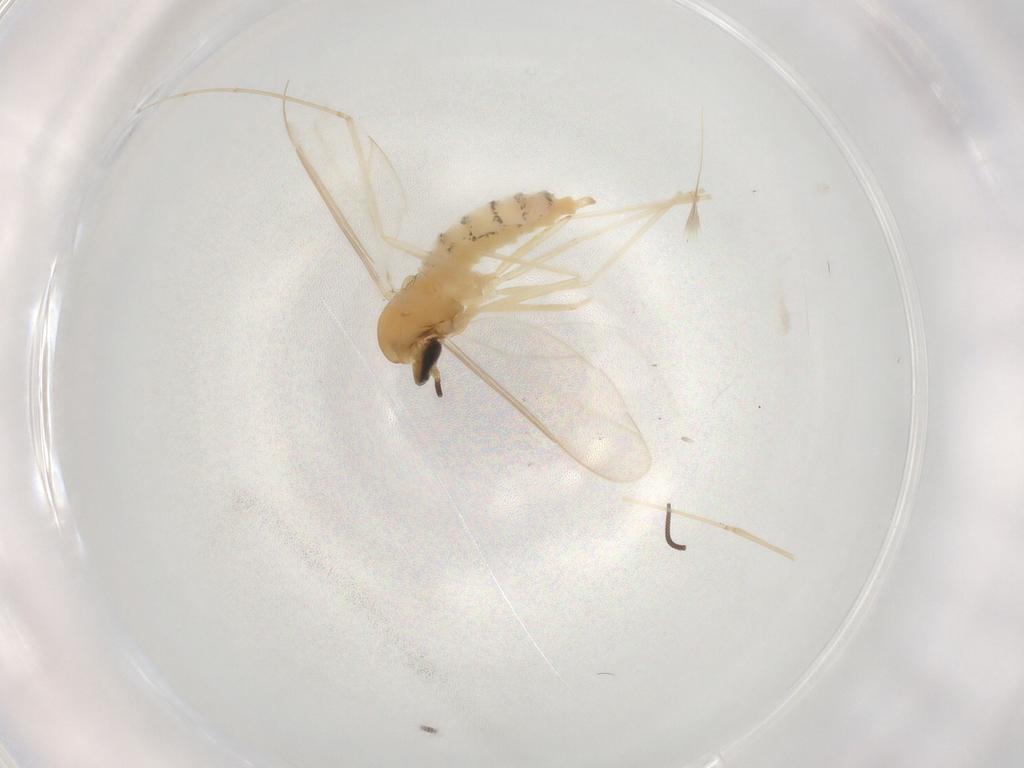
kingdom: Animalia
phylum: Arthropoda
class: Insecta
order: Diptera
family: Cecidomyiidae
